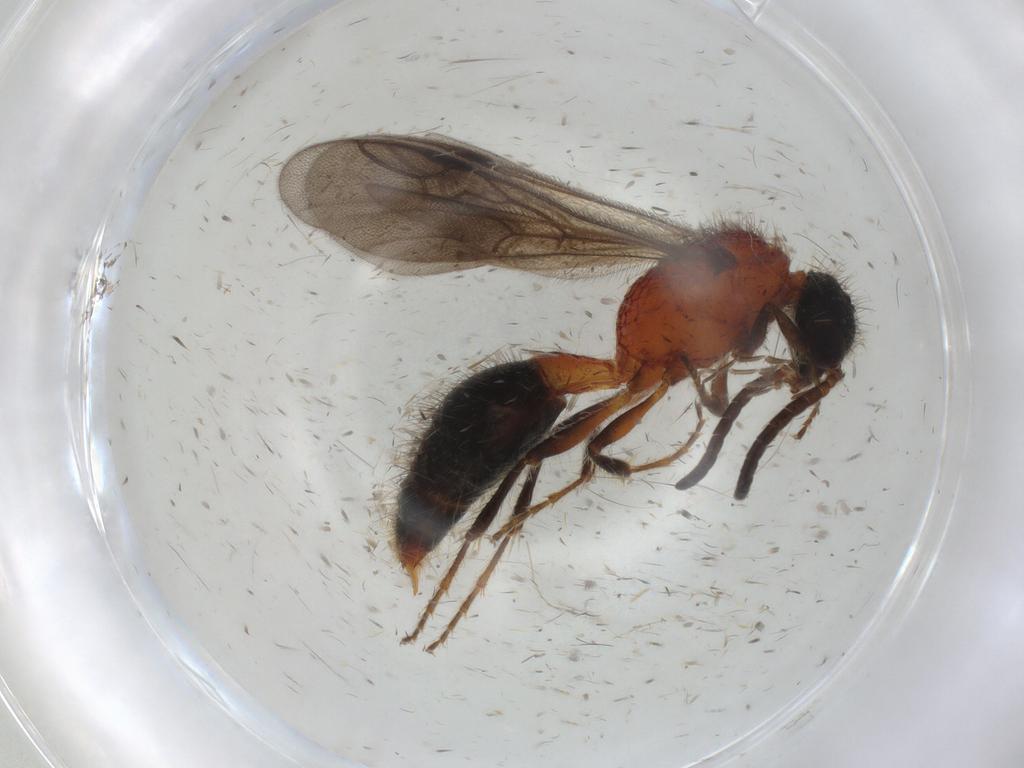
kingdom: Animalia
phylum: Arthropoda
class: Insecta
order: Hymenoptera
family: Mutillidae
